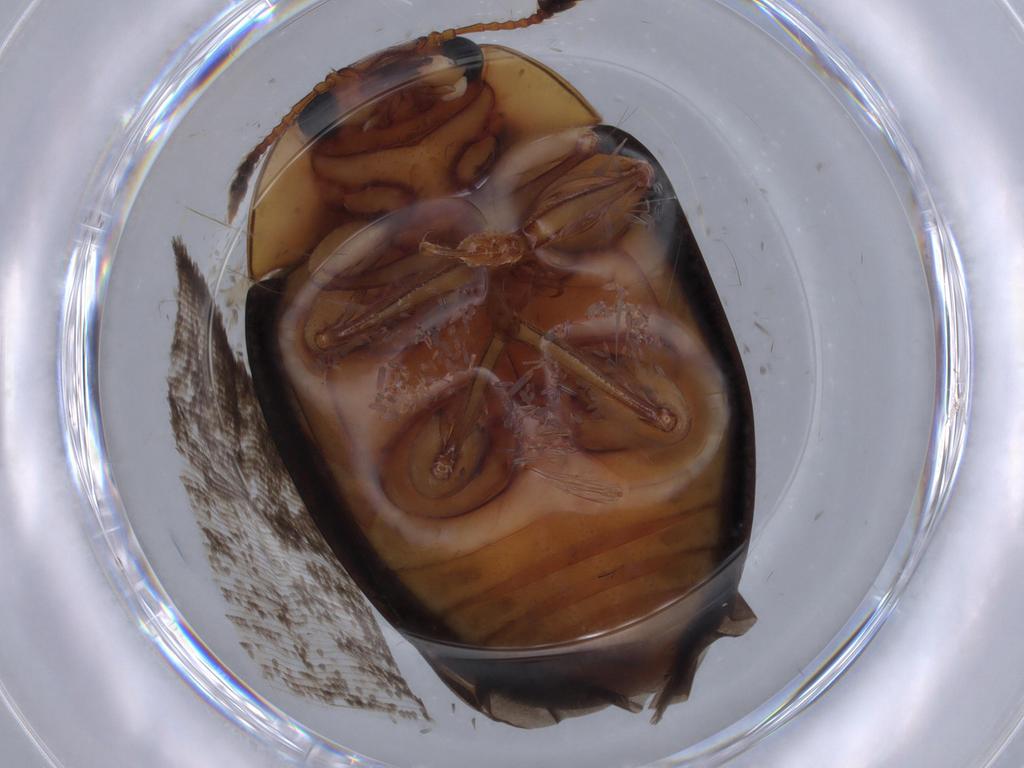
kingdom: Animalia
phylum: Arthropoda
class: Insecta
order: Coleoptera
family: Erotylidae
